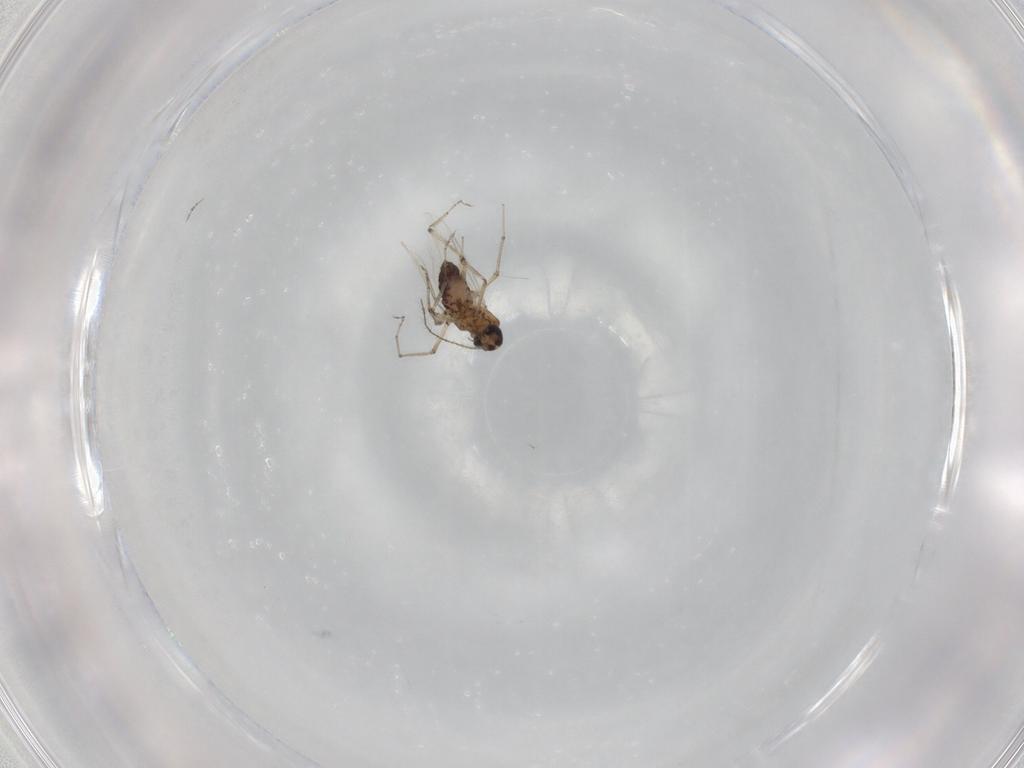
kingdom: Animalia
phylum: Arthropoda
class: Insecta
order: Diptera
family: Ceratopogonidae
